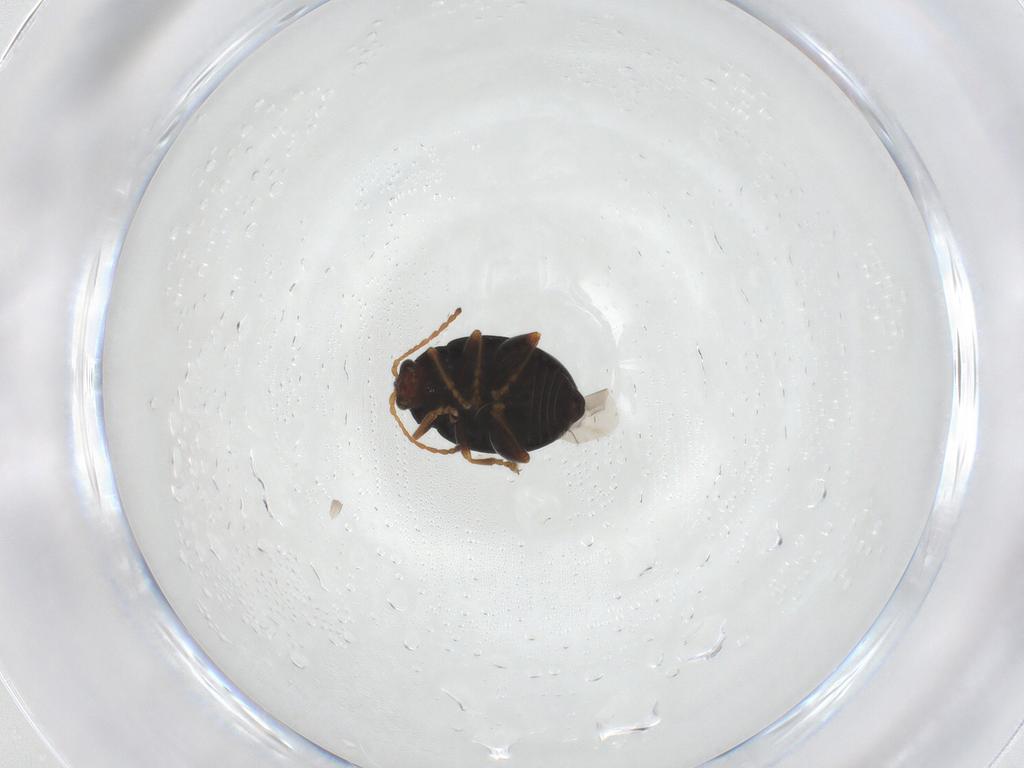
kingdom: Animalia
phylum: Arthropoda
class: Insecta
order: Coleoptera
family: Chrysomelidae
